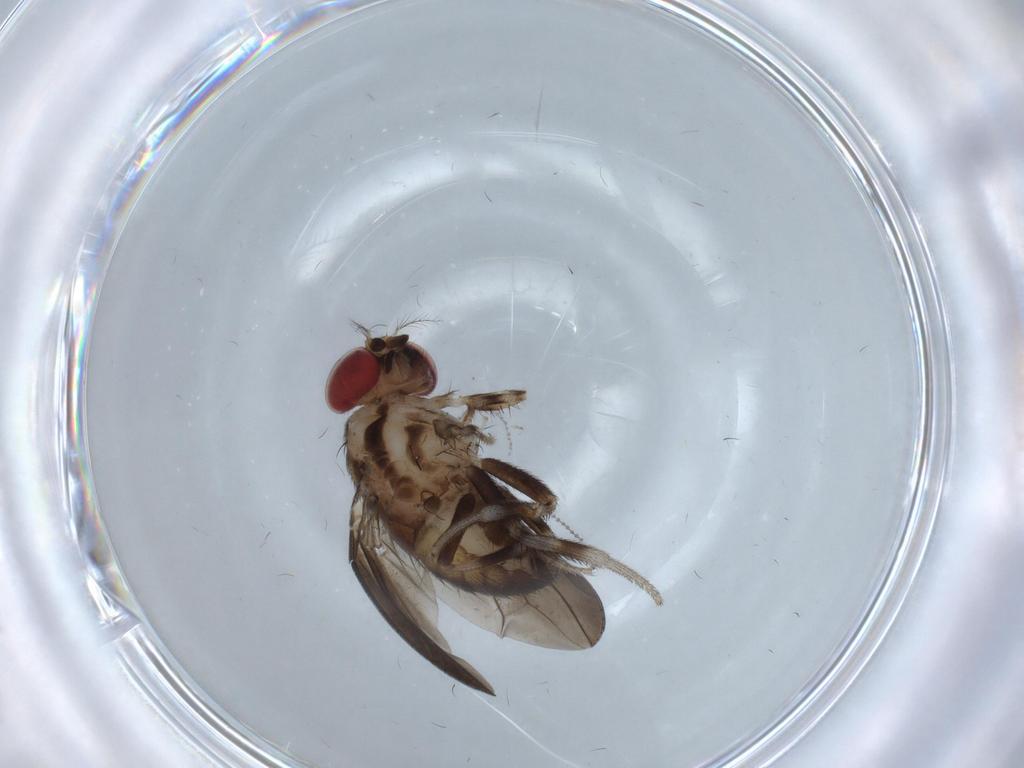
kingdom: Animalia
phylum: Arthropoda
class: Insecta
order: Diptera
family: Drosophilidae
